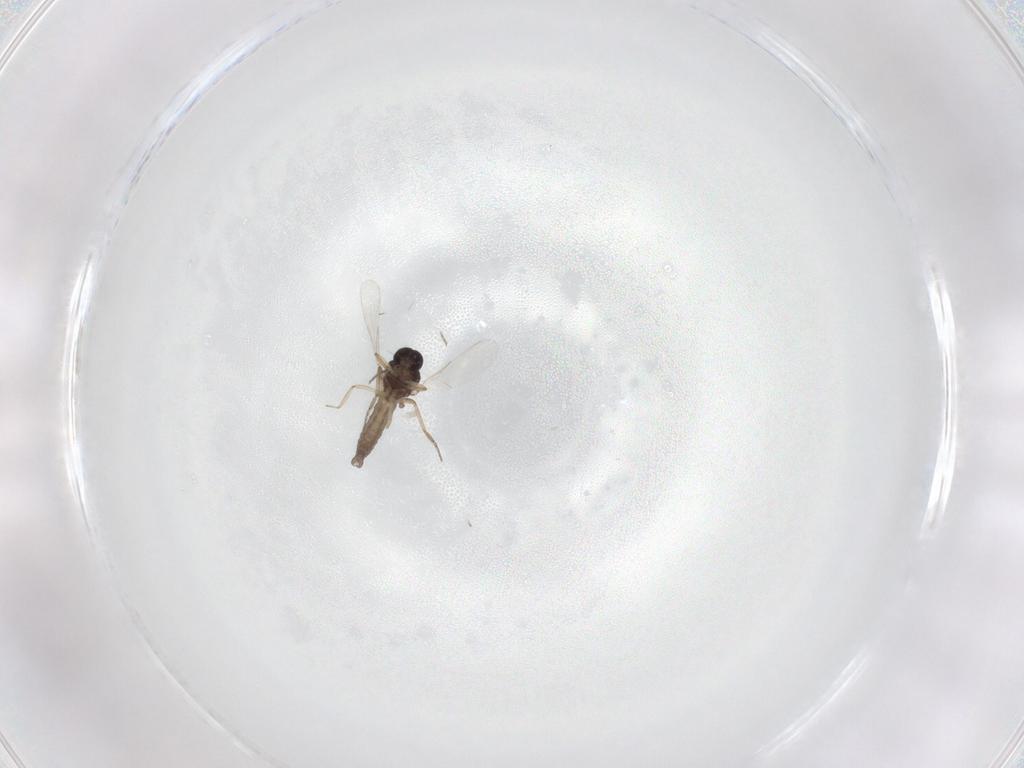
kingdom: Animalia
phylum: Arthropoda
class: Insecta
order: Diptera
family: Ceratopogonidae
